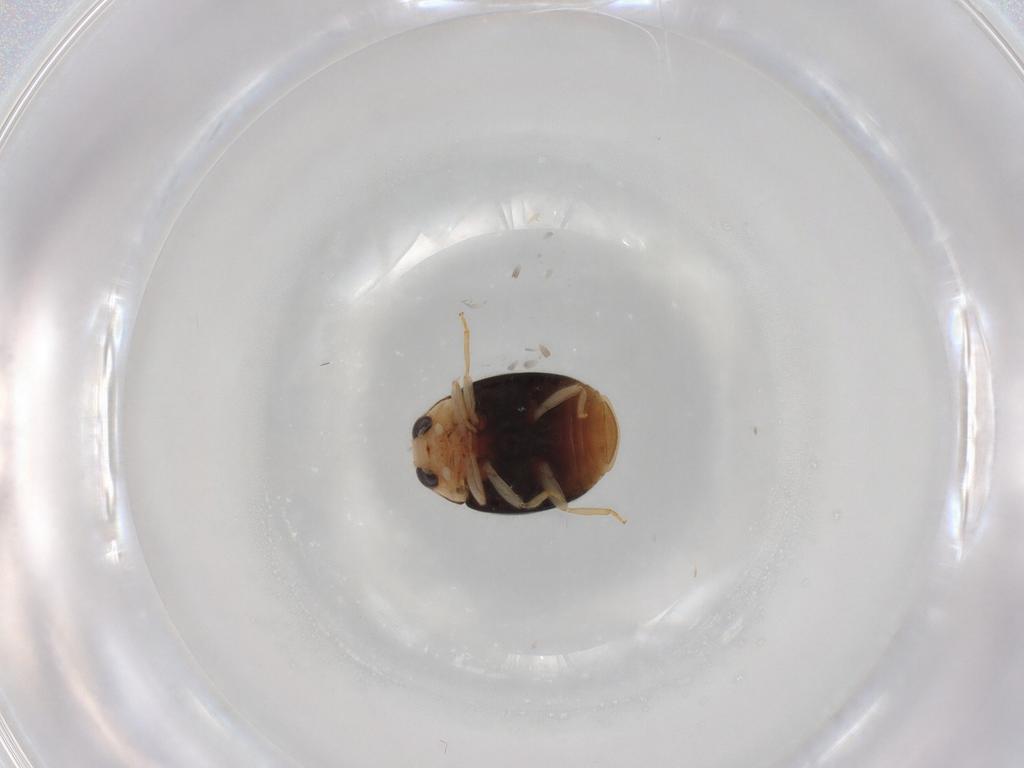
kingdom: Animalia
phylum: Arthropoda
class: Insecta
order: Coleoptera
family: Coccinellidae
